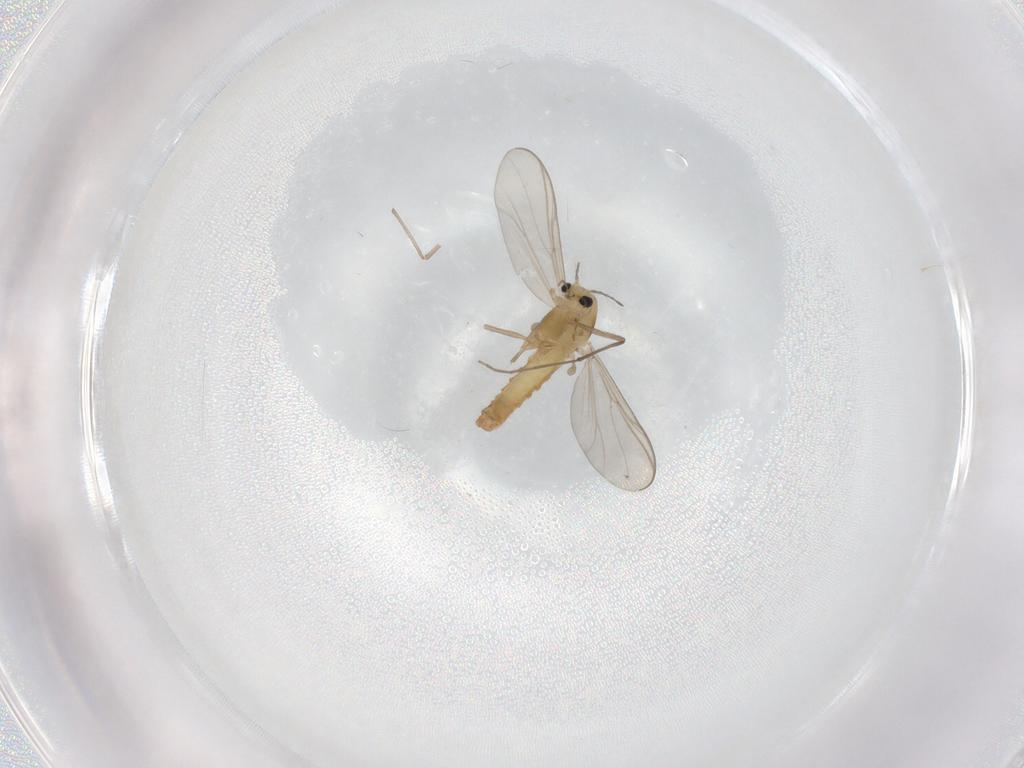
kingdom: Animalia
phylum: Arthropoda
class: Insecta
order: Diptera
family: Chironomidae
